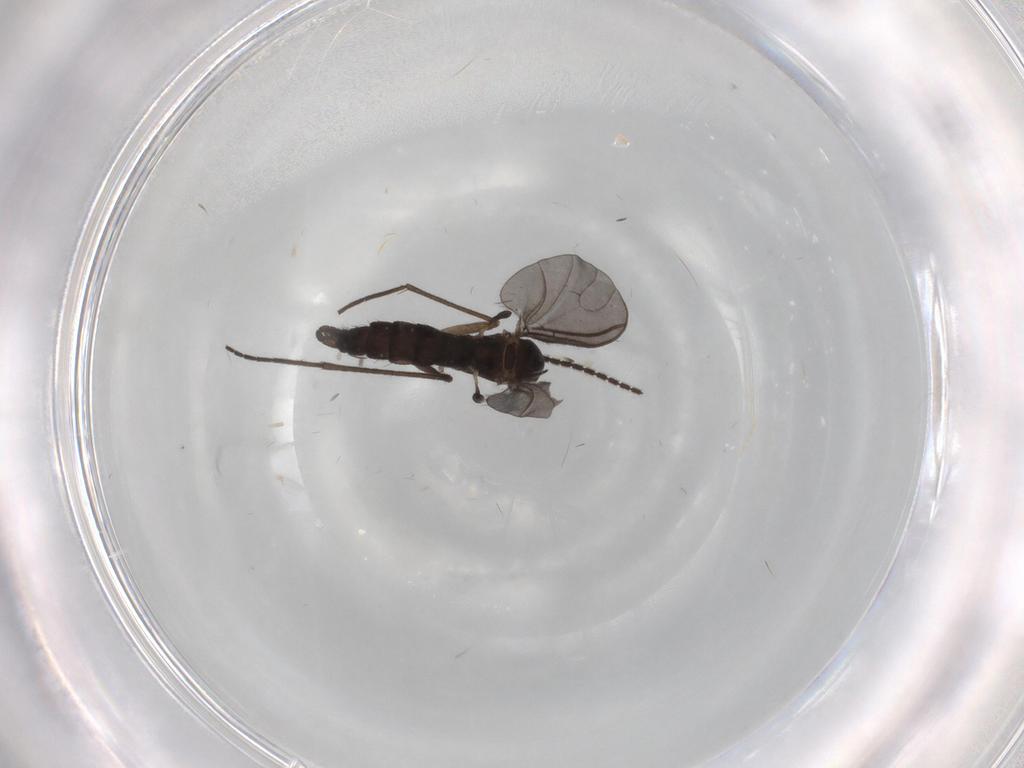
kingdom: Animalia
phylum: Arthropoda
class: Insecta
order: Diptera
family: Sciaridae
